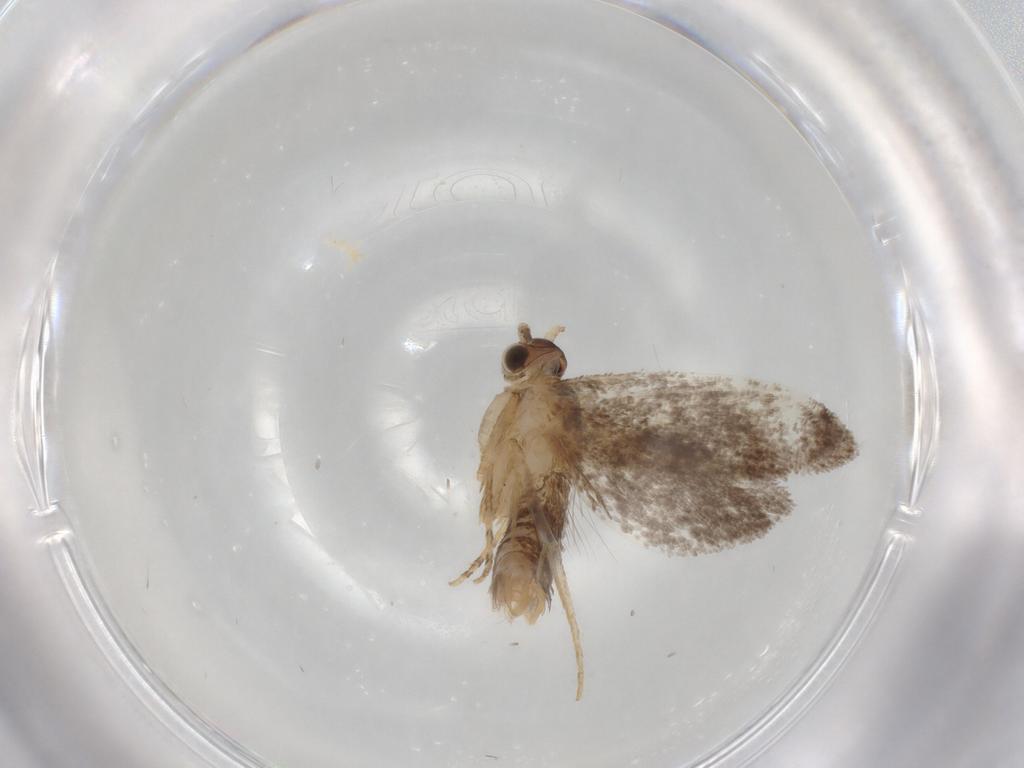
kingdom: Animalia
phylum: Arthropoda
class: Insecta
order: Lepidoptera
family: Dryadaulidae
